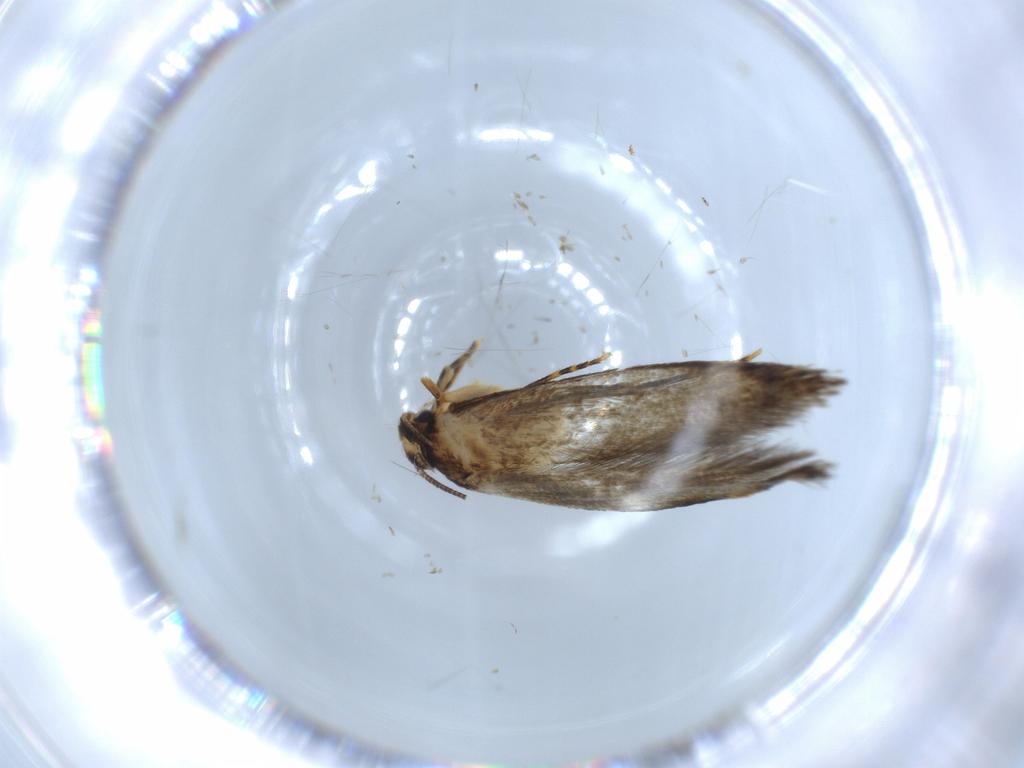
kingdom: Animalia
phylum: Arthropoda
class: Insecta
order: Lepidoptera
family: Tineidae
